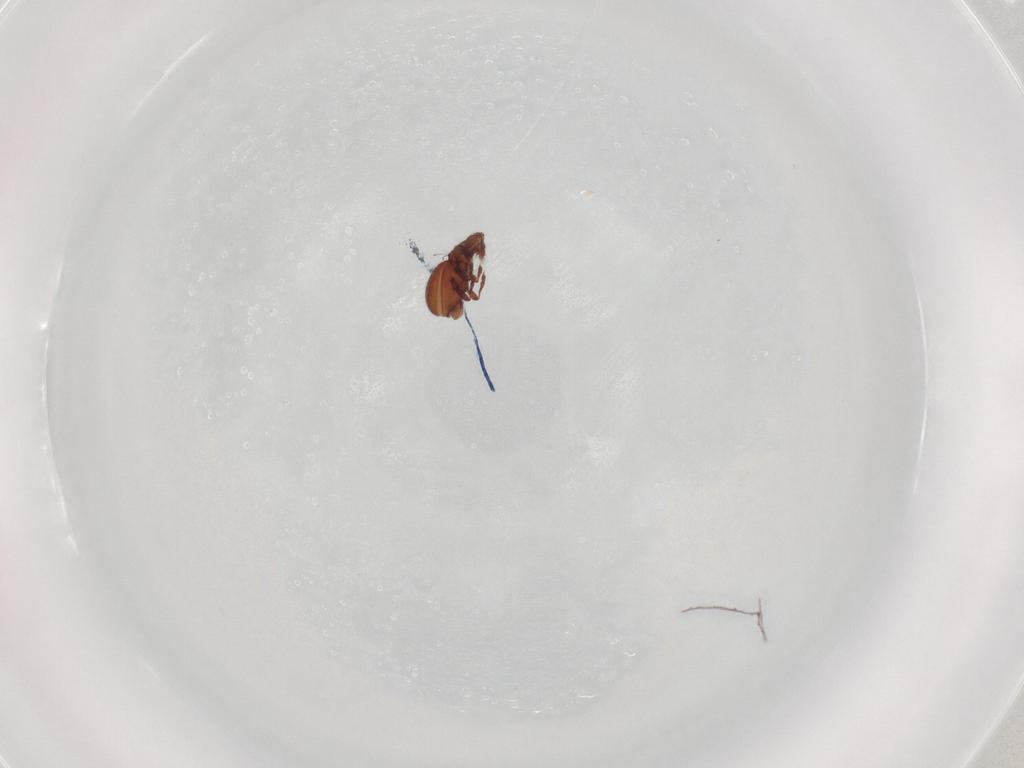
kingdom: Animalia
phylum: Arthropoda
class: Arachnida
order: Sarcoptiformes
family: Eremaeidae
